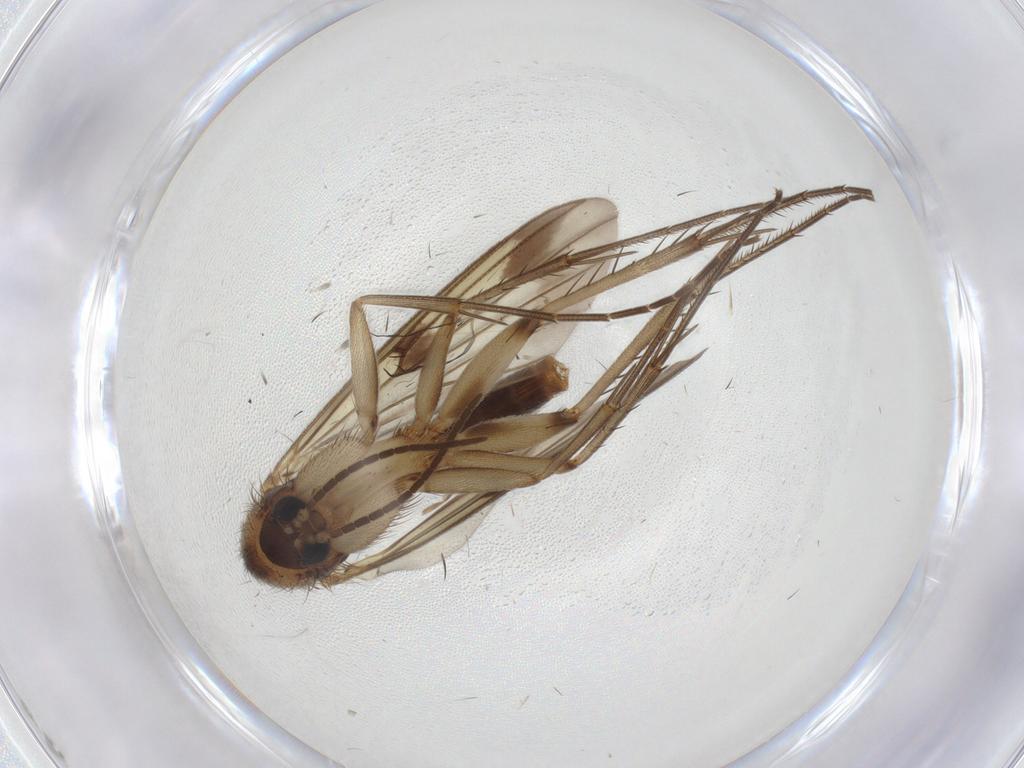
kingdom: Animalia
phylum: Arthropoda
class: Insecta
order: Diptera
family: Mycetophilidae
